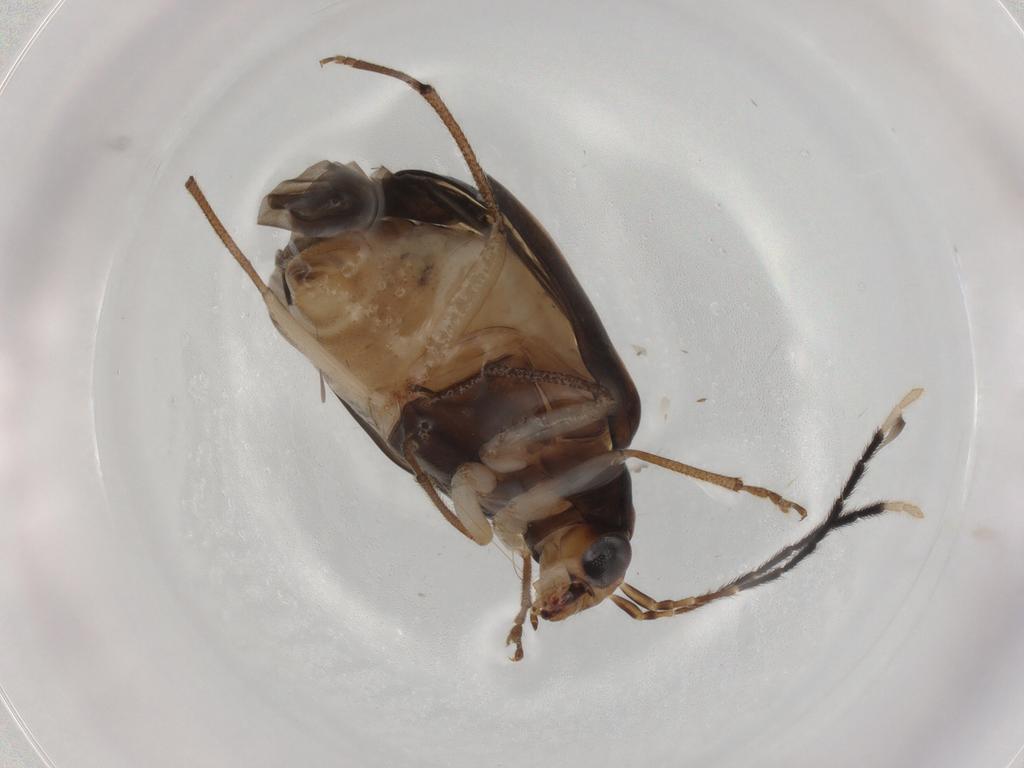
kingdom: Animalia
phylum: Arthropoda
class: Insecta
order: Coleoptera
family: Chrysomelidae
